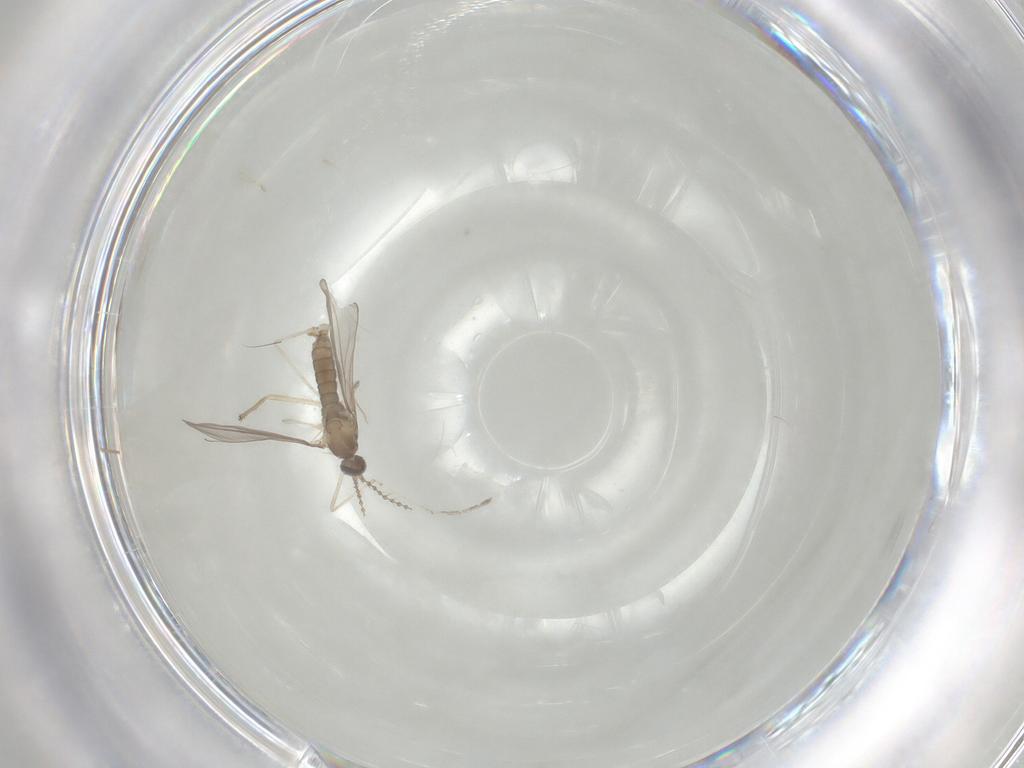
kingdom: Animalia
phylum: Arthropoda
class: Insecta
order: Diptera
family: Cecidomyiidae
